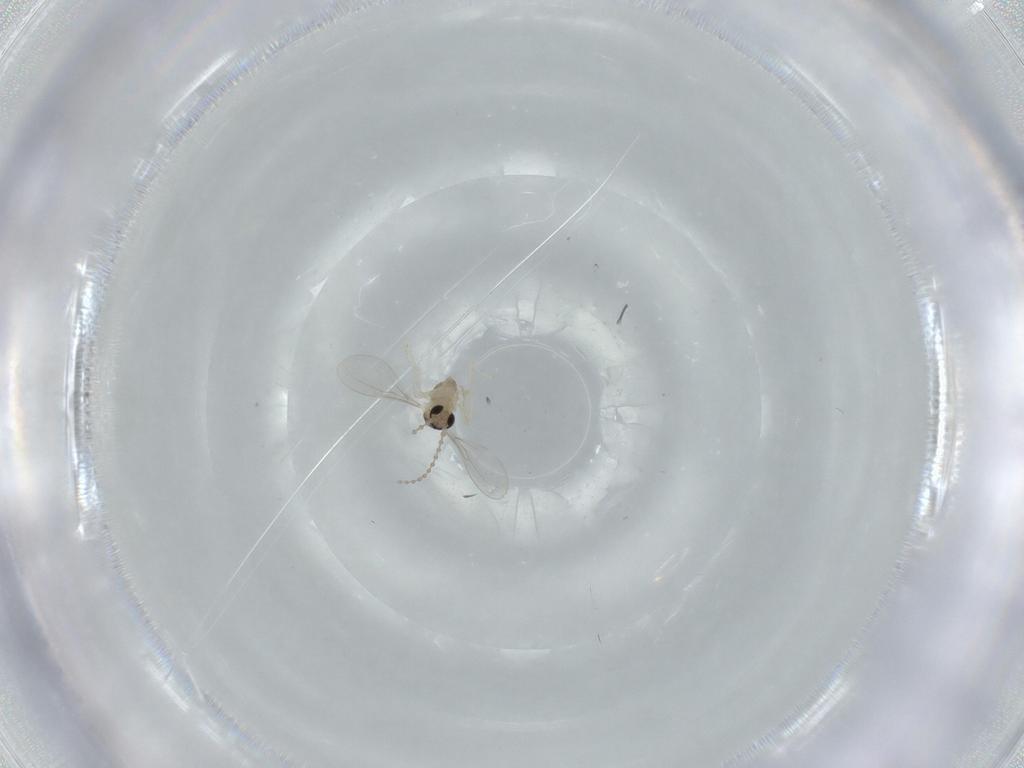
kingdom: Animalia
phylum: Arthropoda
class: Insecta
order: Diptera
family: Cecidomyiidae
